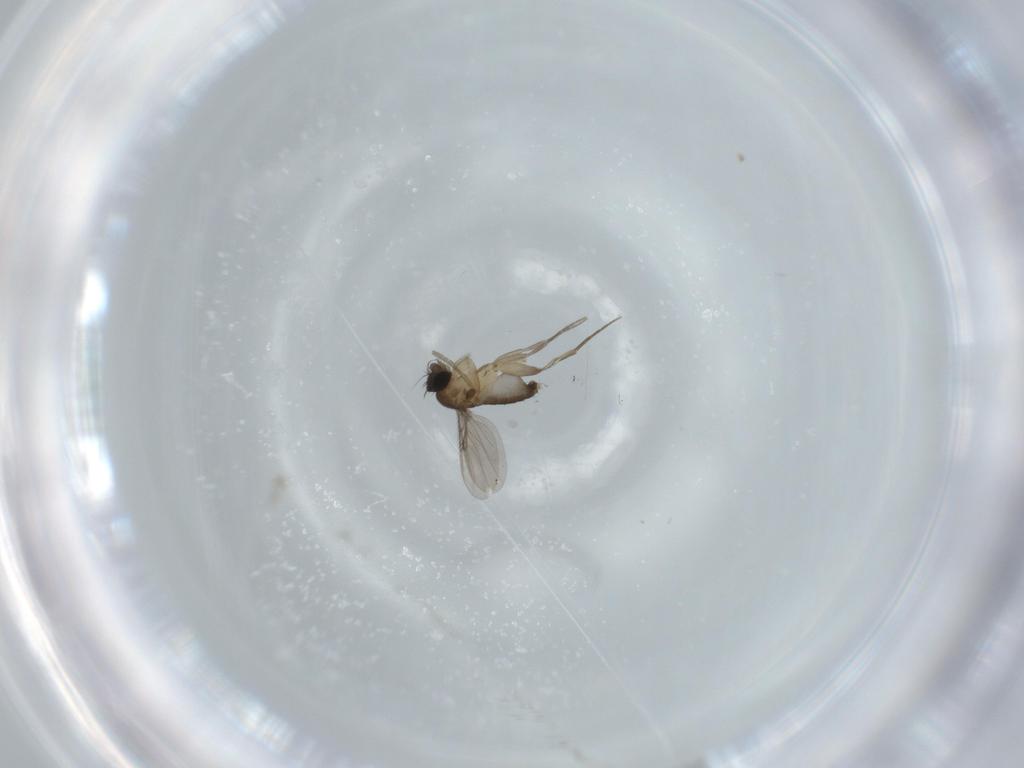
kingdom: Animalia
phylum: Arthropoda
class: Insecta
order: Diptera
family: Phoridae
